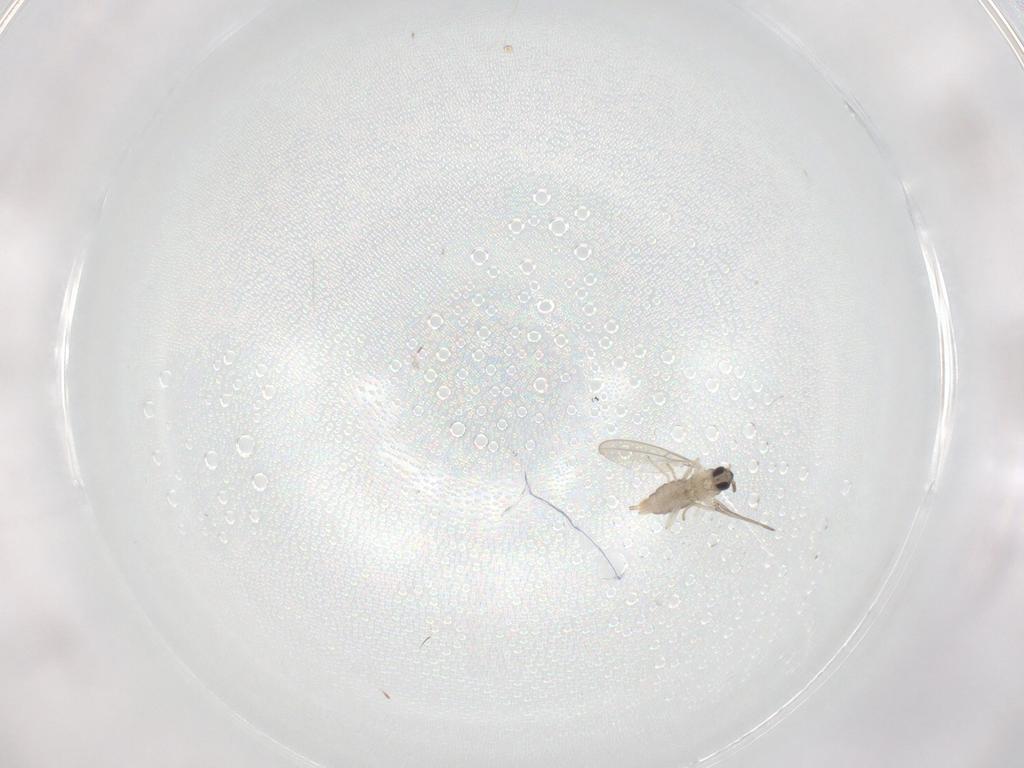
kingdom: Animalia
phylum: Arthropoda
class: Insecta
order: Diptera
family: Cecidomyiidae
